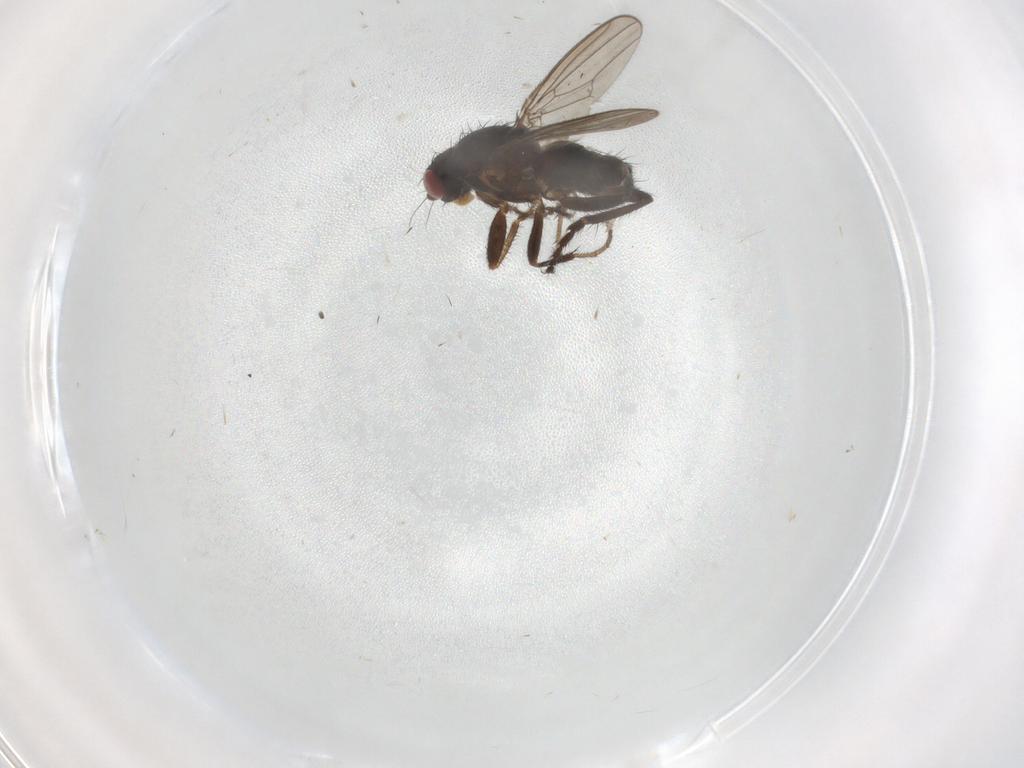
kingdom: Animalia
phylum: Arthropoda
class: Insecta
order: Diptera
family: Sphaeroceridae
